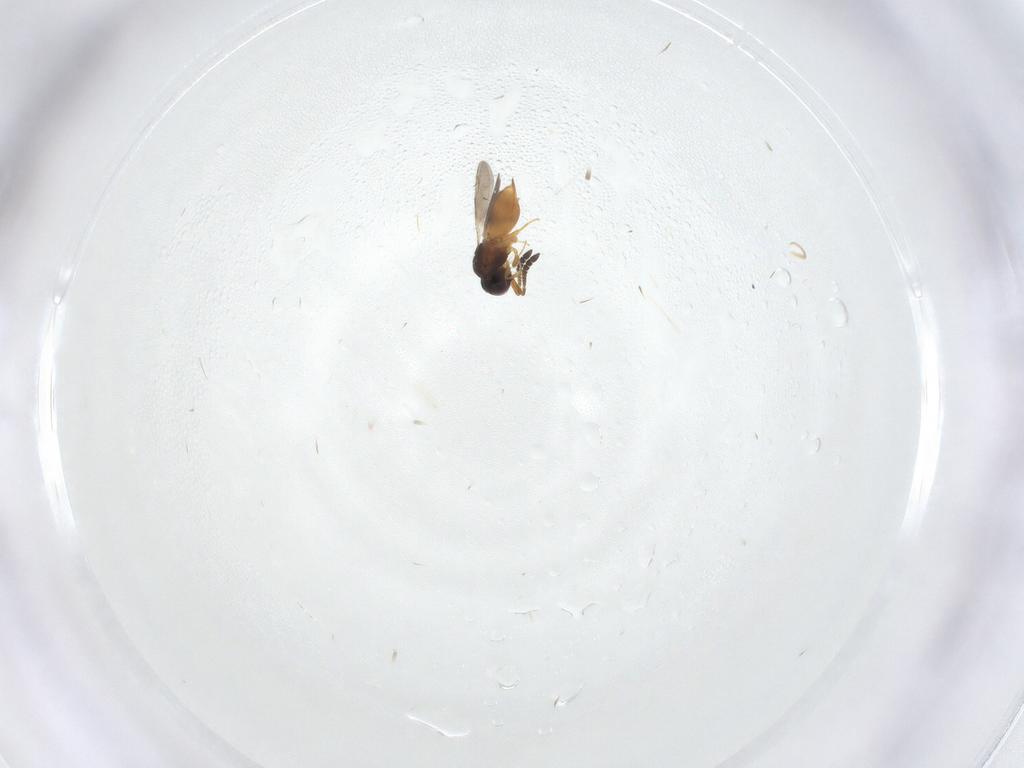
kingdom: Animalia
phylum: Arthropoda
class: Insecta
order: Hymenoptera
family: Ceraphronidae
